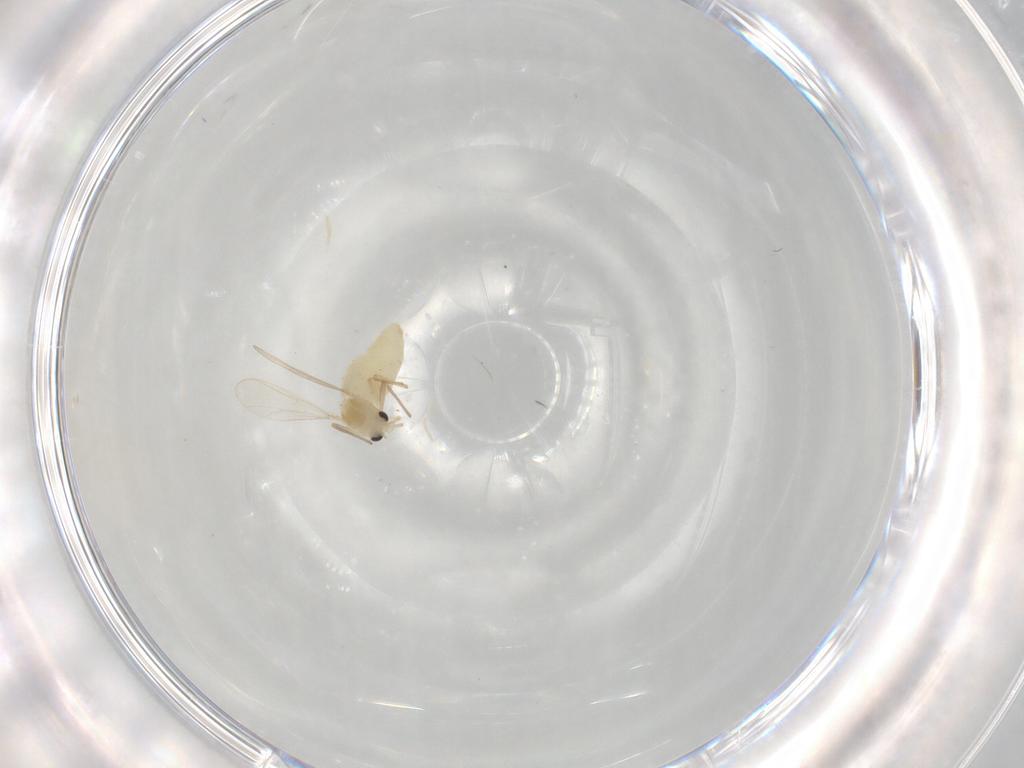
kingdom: Animalia
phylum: Arthropoda
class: Insecta
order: Diptera
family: Chironomidae
